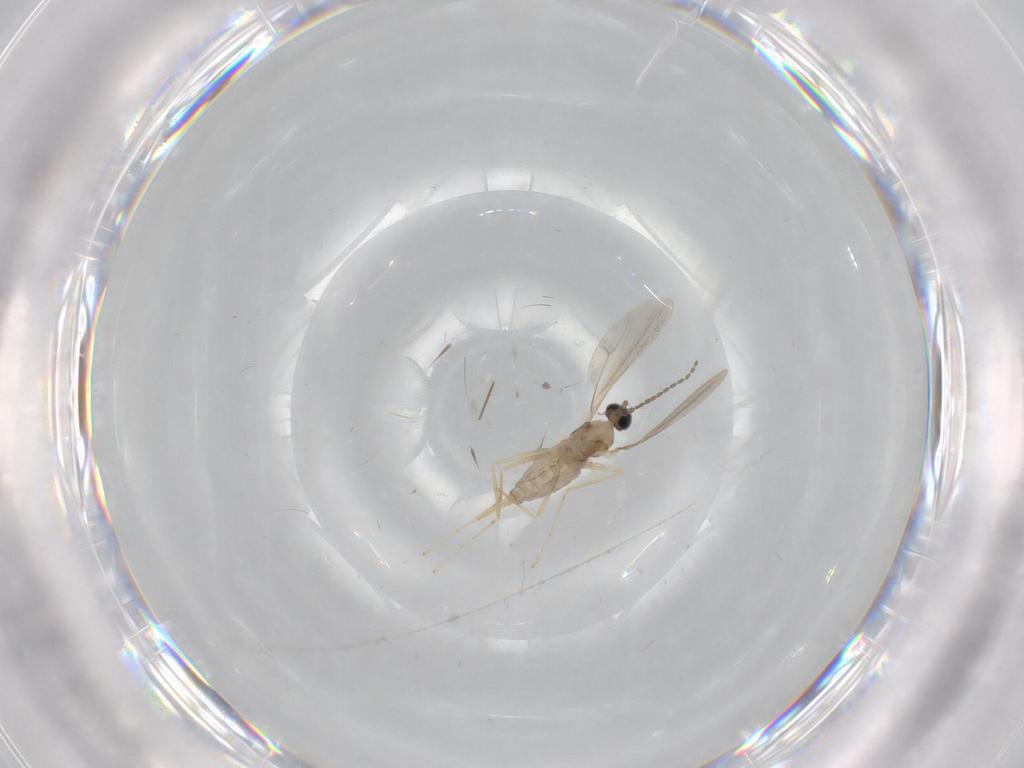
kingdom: Animalia
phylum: Arthropoda
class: Insecta
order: Diptera
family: Cecidomyiidae
